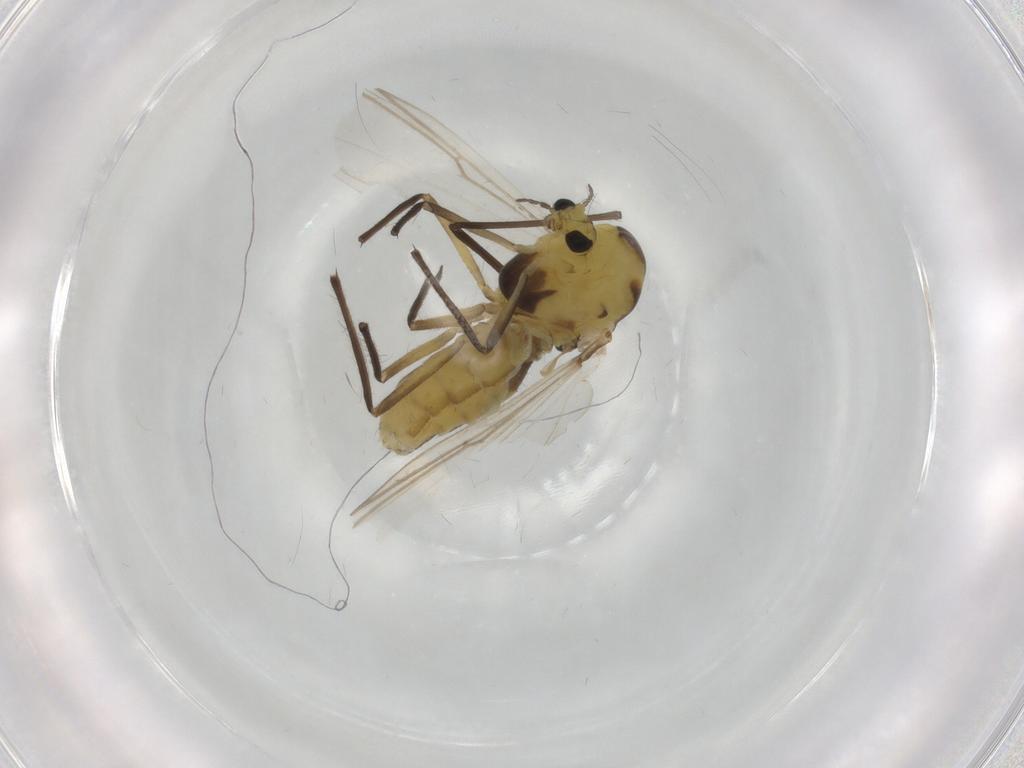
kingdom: Animalia
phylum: Arthropoda
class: Insecta
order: Diptera
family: Chironomidae
